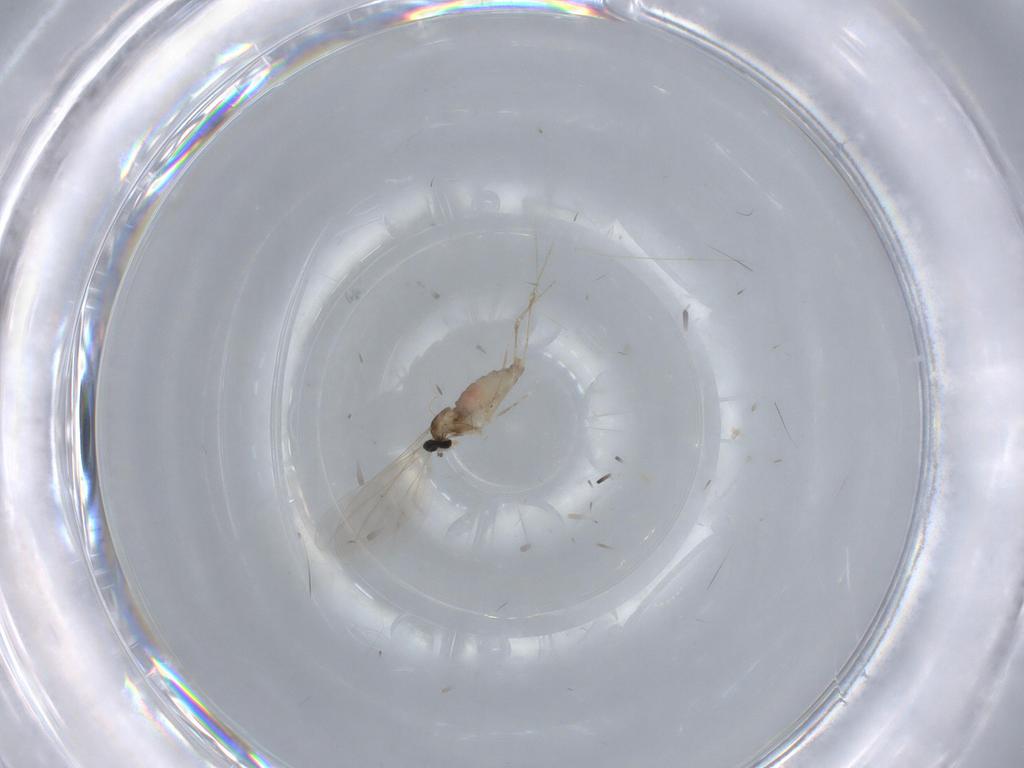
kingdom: Animalia
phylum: Arthropoda
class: Insecta
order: Diptera
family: Cecidomyiidae
